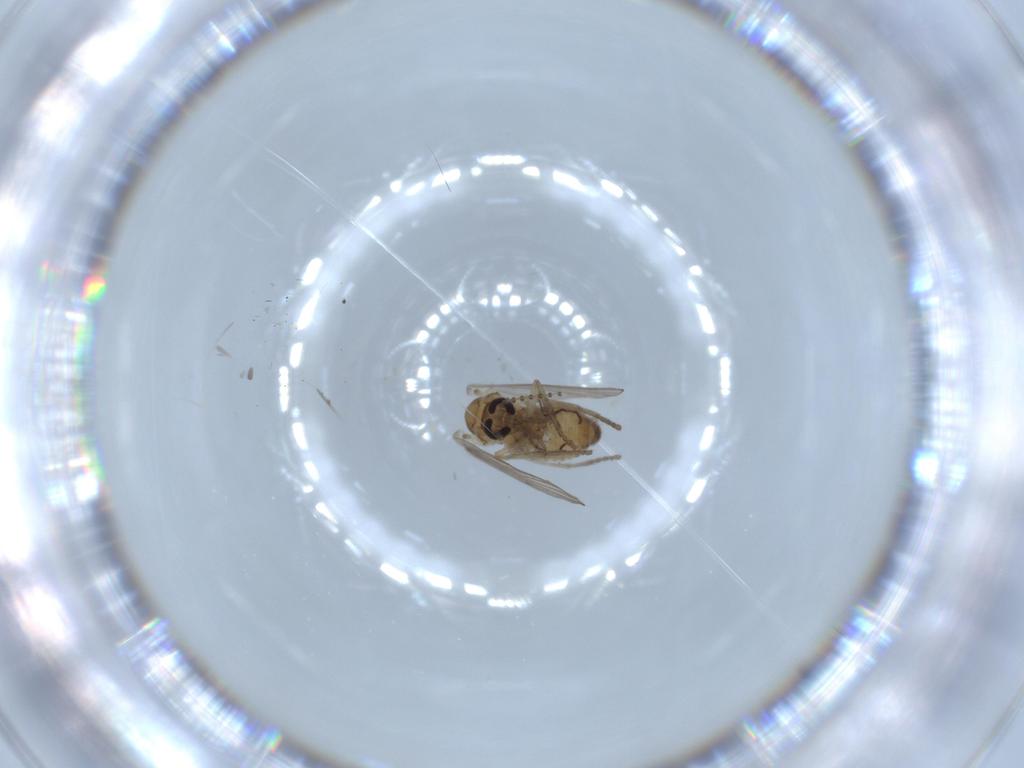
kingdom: Animalia
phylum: Arthropoda
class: Insecta
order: Diptera
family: Psychodidae
